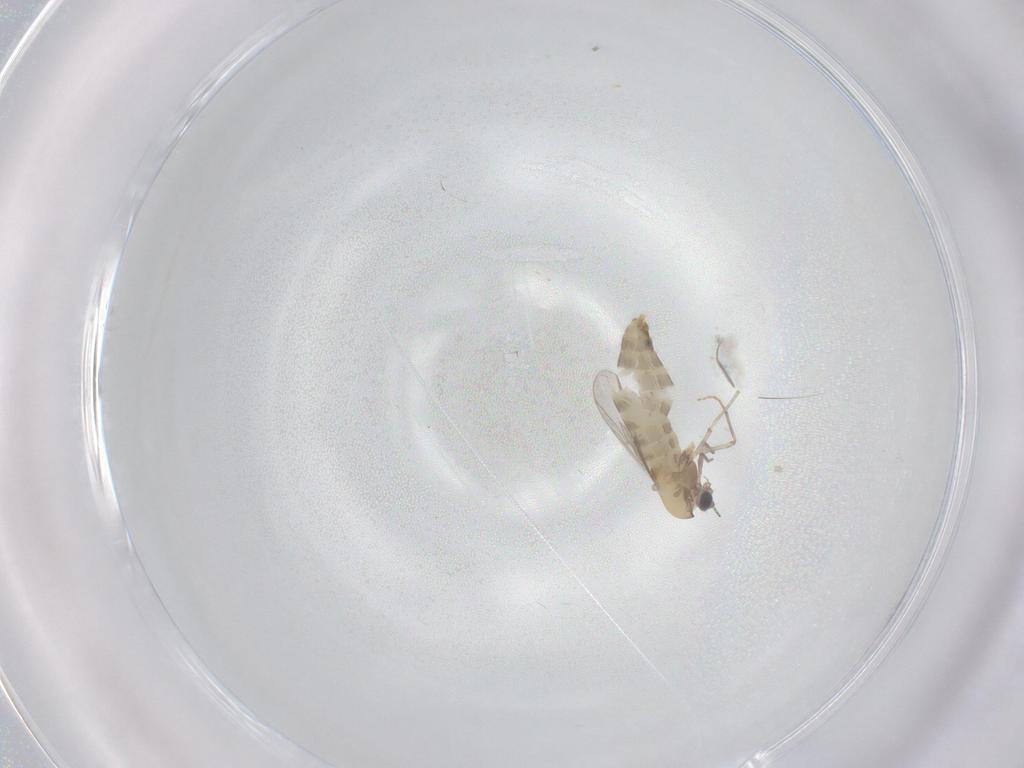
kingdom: Animalia
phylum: Arthropoda
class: Insecta
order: Diptera
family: Chironomidae
